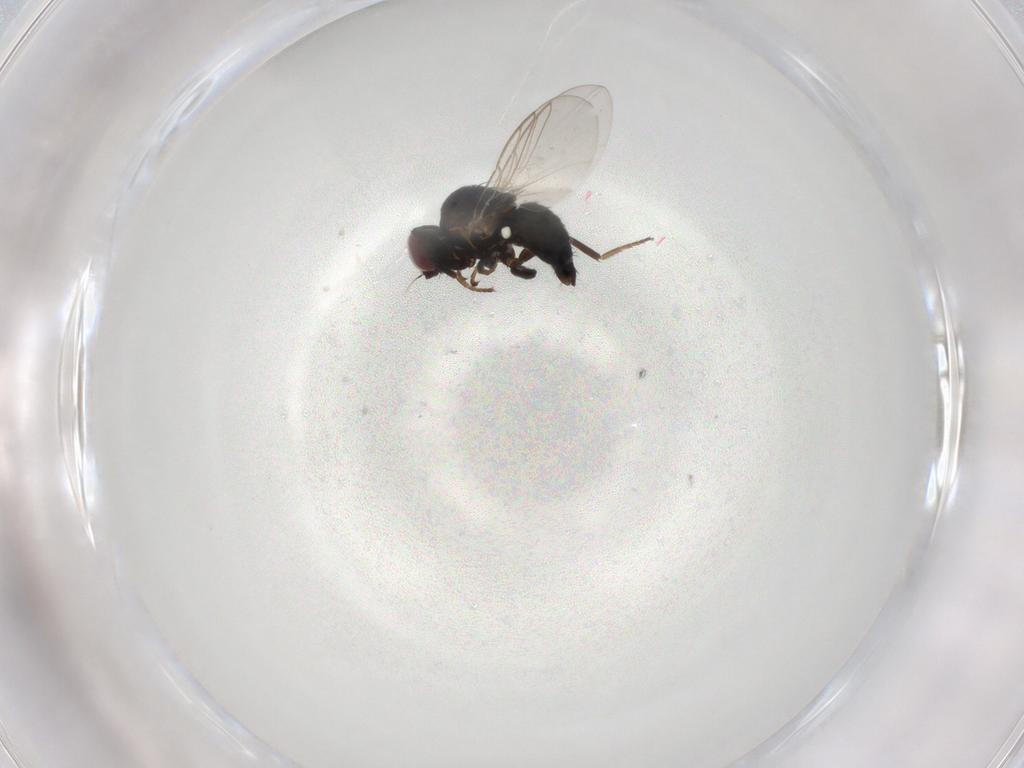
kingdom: Animalia
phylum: Arthropoda
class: Insecta
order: Diptera
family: Agromyzidae
